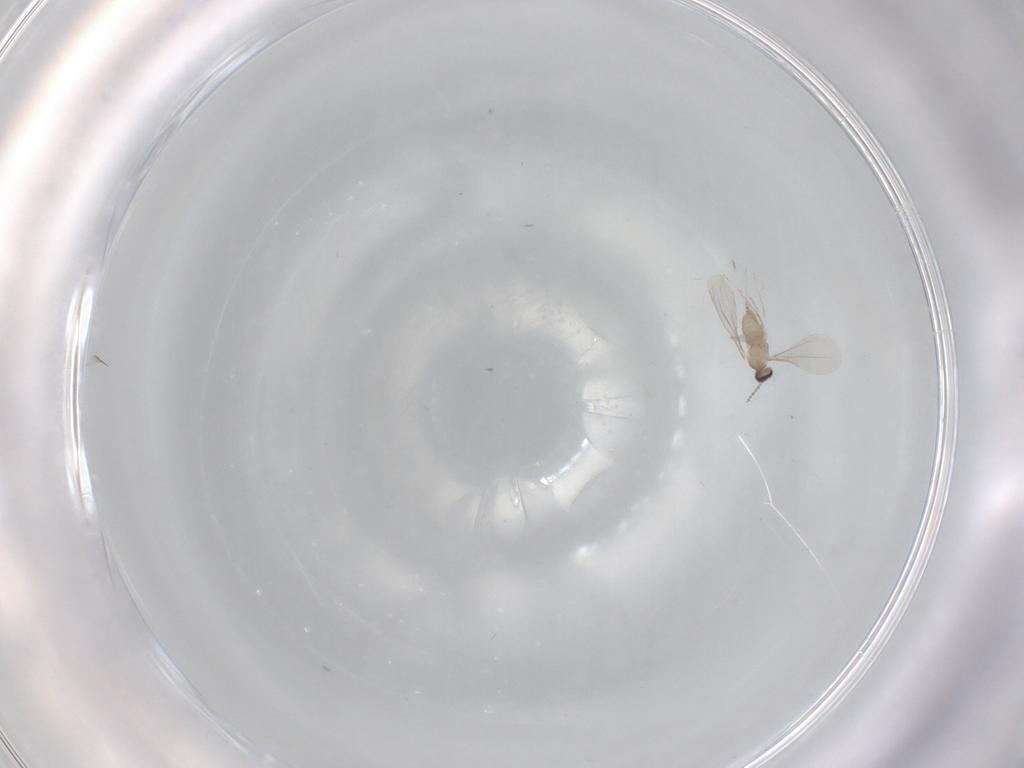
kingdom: Animalia
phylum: Arthropoda
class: Insecta
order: Diptera
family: Cecidomyiidae
